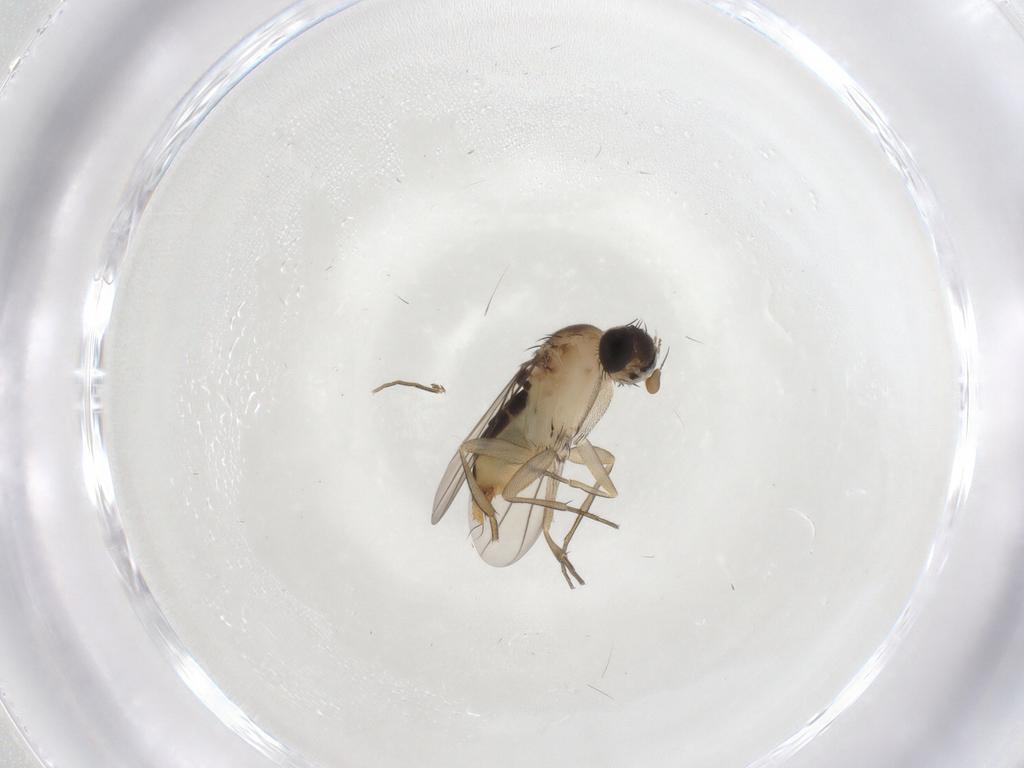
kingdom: Animalia
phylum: Arthropoda
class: Insecta
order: Diptera
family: Phoridae
